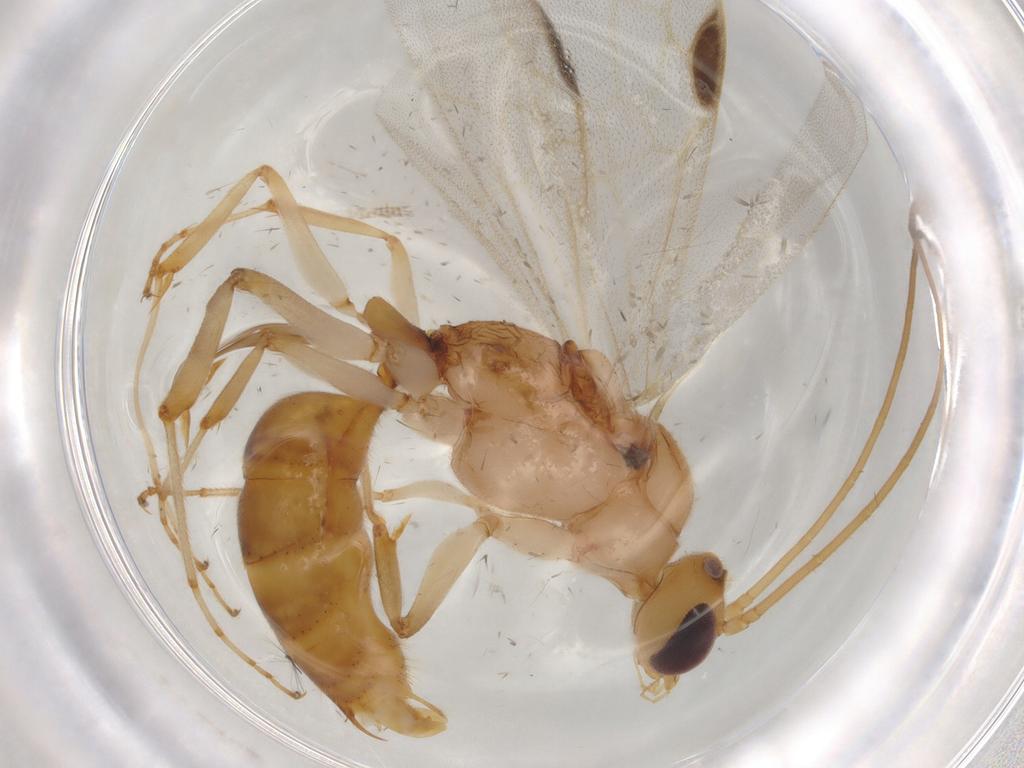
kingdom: Animalia
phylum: Arthropoda
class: Insecta
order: Hymenoptera
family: Formicidae
